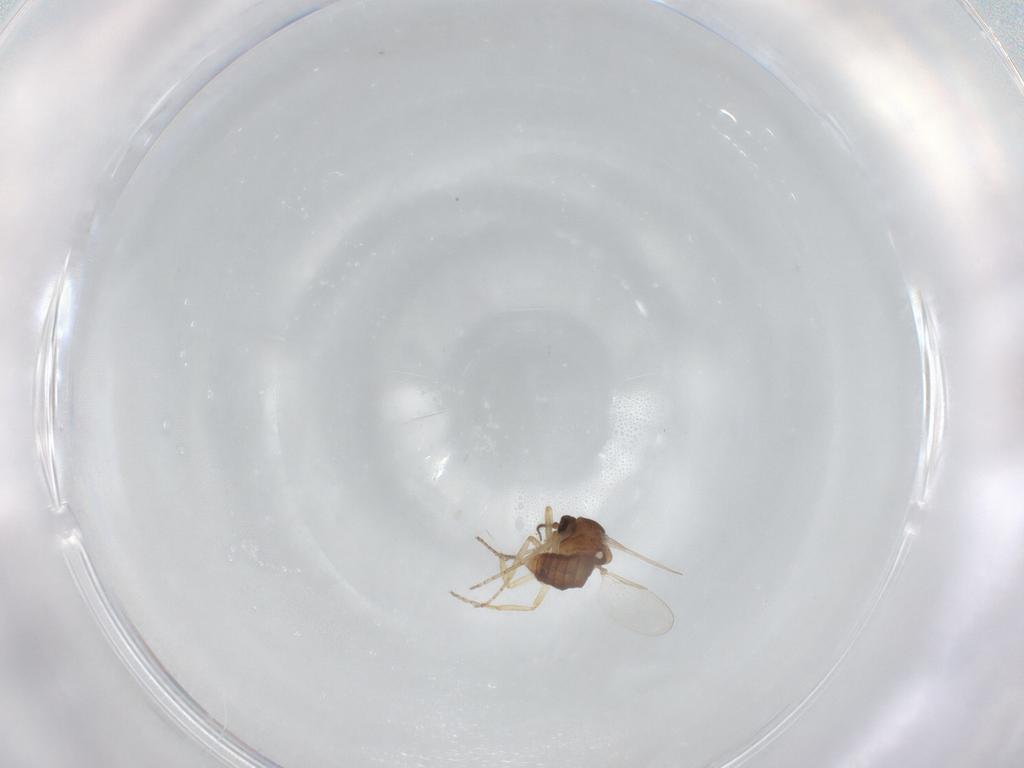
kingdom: Animalia
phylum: Arthropoda
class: Insecta
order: Diptera
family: Ceratopogonidae
